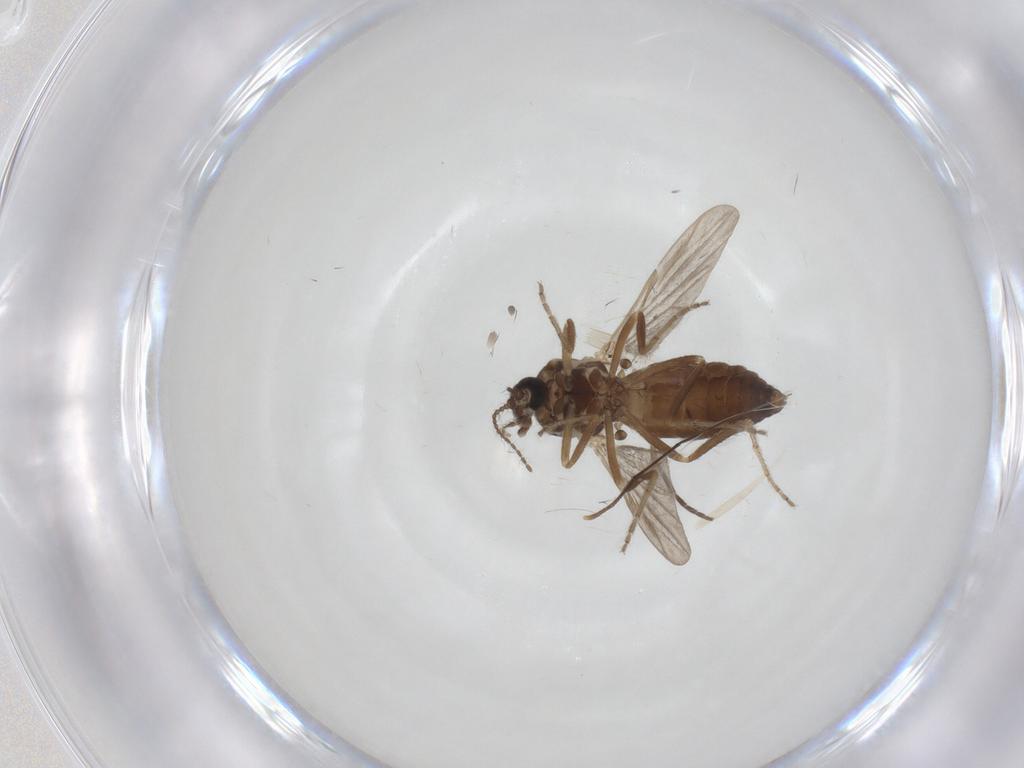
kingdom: Animalia
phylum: Arthropoda
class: Insecta
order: Diptera
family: Ceratopogonidae
